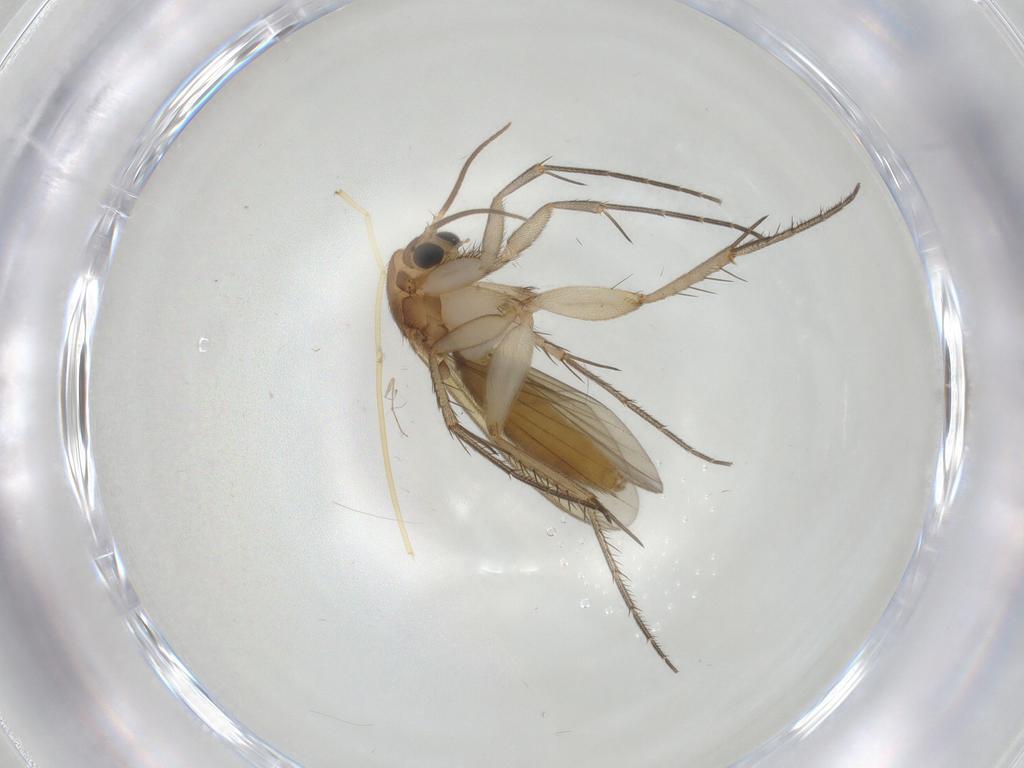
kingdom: Animalia
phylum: Arthropoda
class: Insecta
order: Diptera
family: Mycetophilidae
